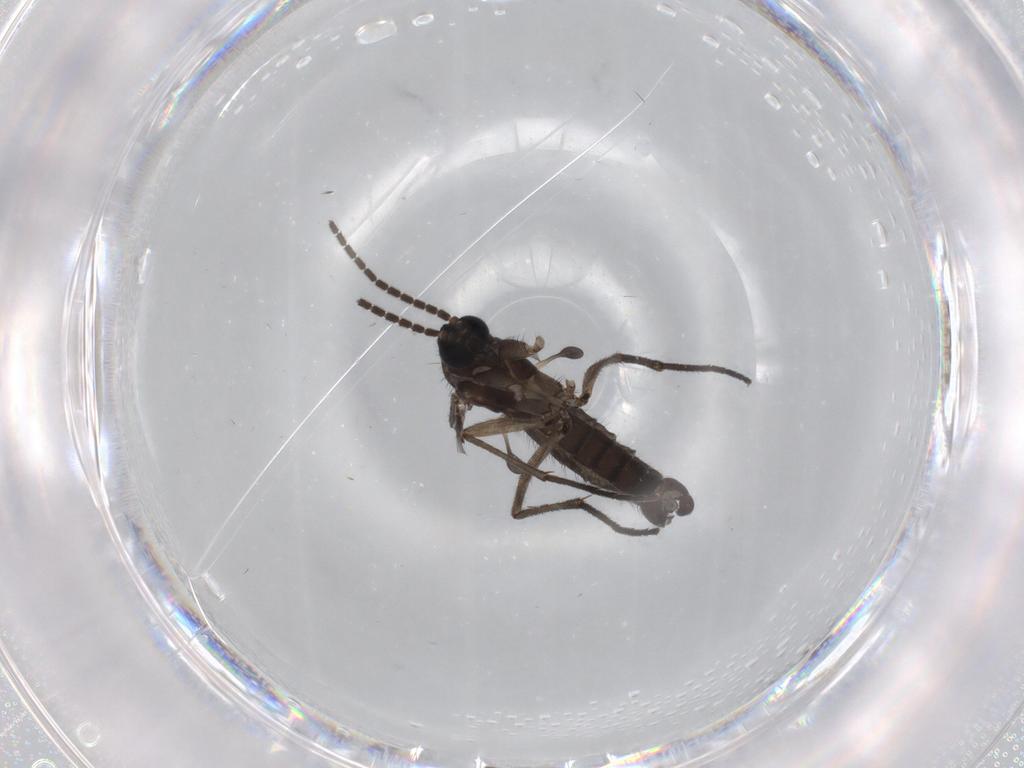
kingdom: Animalia
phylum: Arthropoda
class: Insecta
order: Diptera
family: Sciaridae
